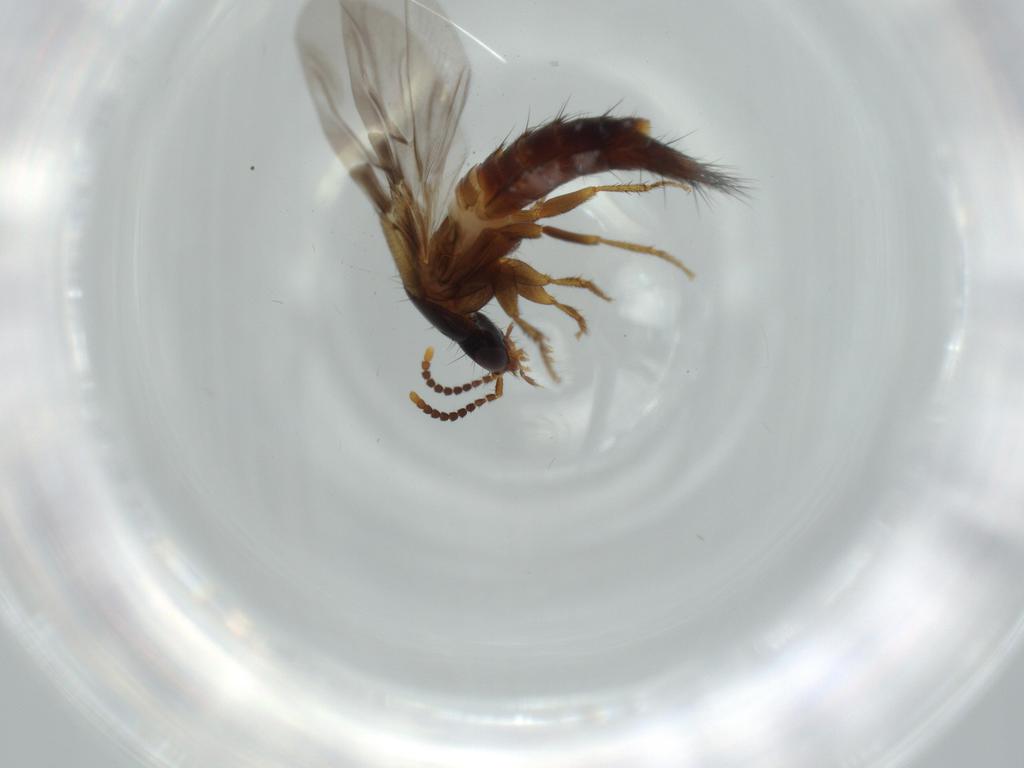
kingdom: Animalia
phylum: Arthropoda
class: Insecta
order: Coleoptera
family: Staphylinidae
